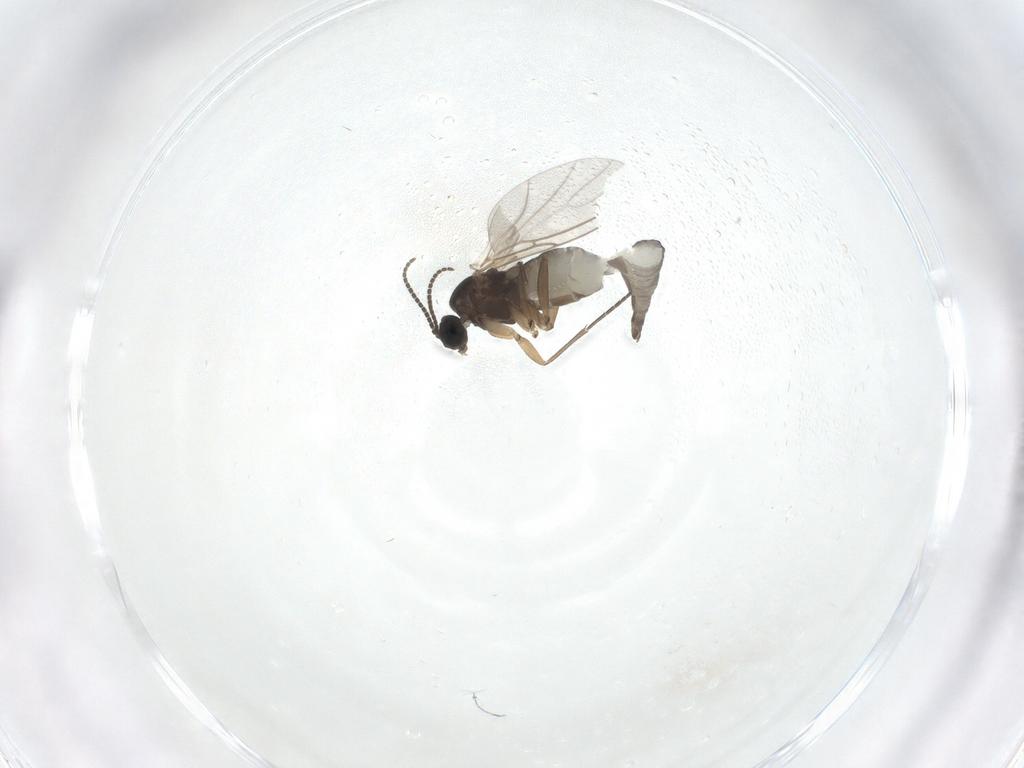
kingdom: Animalia
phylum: Arthropoda
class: Insecta
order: Diptera
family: Sciaridae
